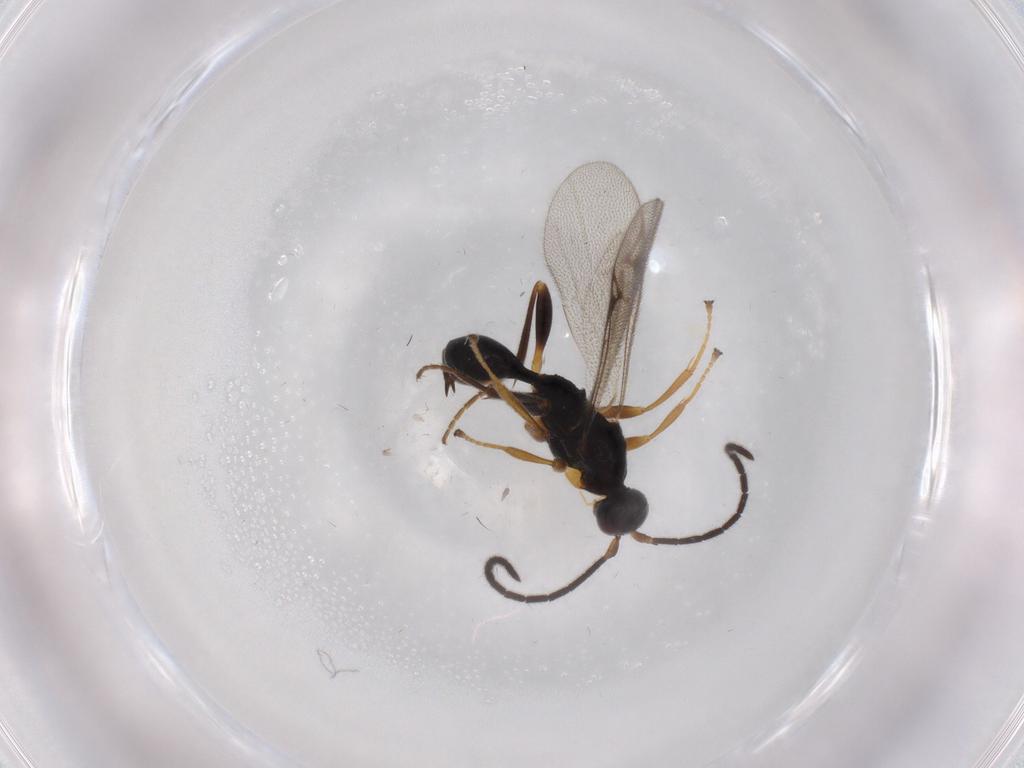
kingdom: Animalia
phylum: Arthropoda
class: Insecta
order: Hymenoptera
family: Proctotrupidae
